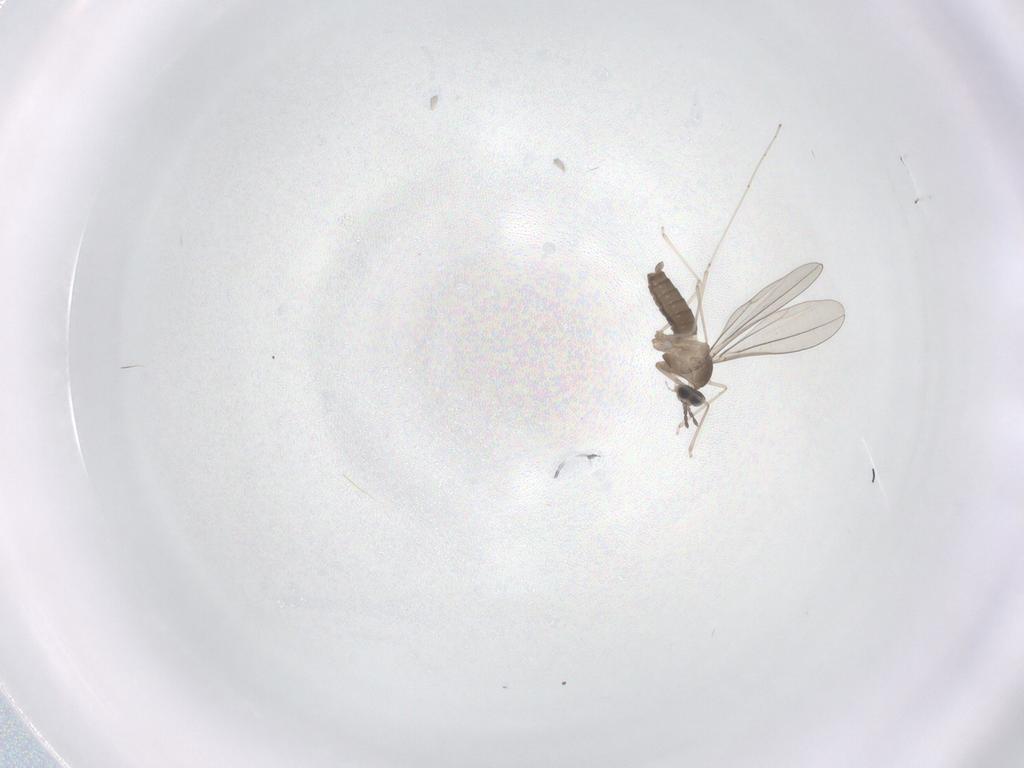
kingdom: Animalia
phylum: Arthropoda
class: Insecta
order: Diptera
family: Cecidomyiidae
